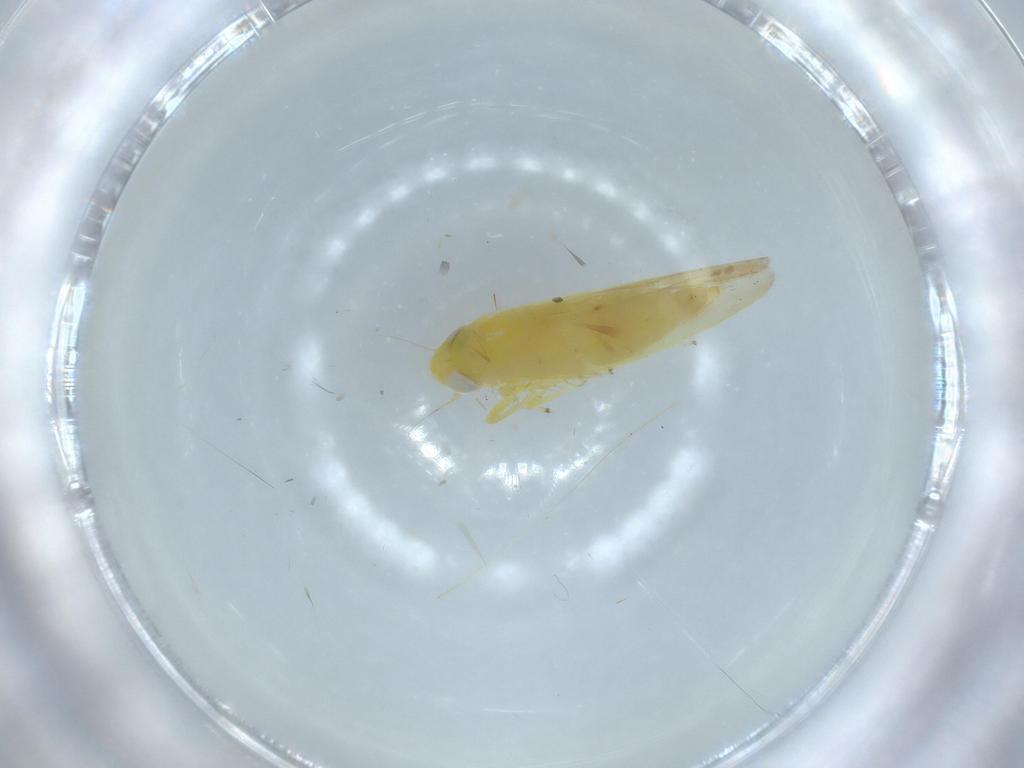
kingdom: Animalia
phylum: Arthropoda
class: Insecta
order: Hemiptera
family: Cicadellidae
